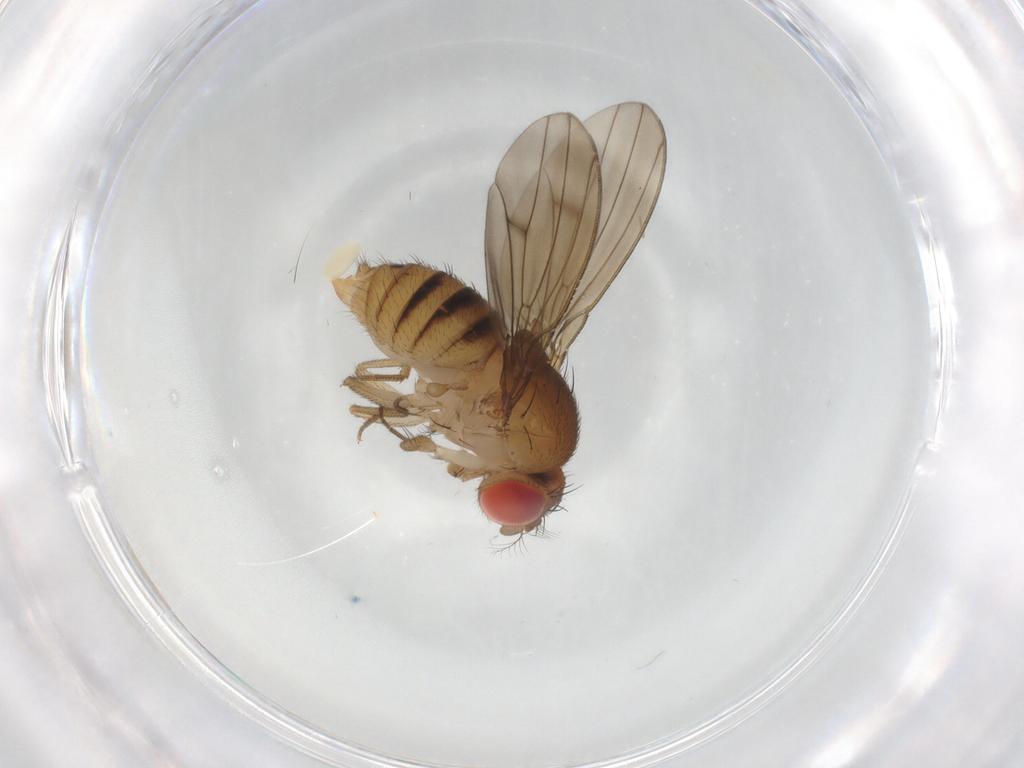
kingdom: Animalia
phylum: Arthropoda
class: Insecta
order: Diptera
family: Drosophilidae
